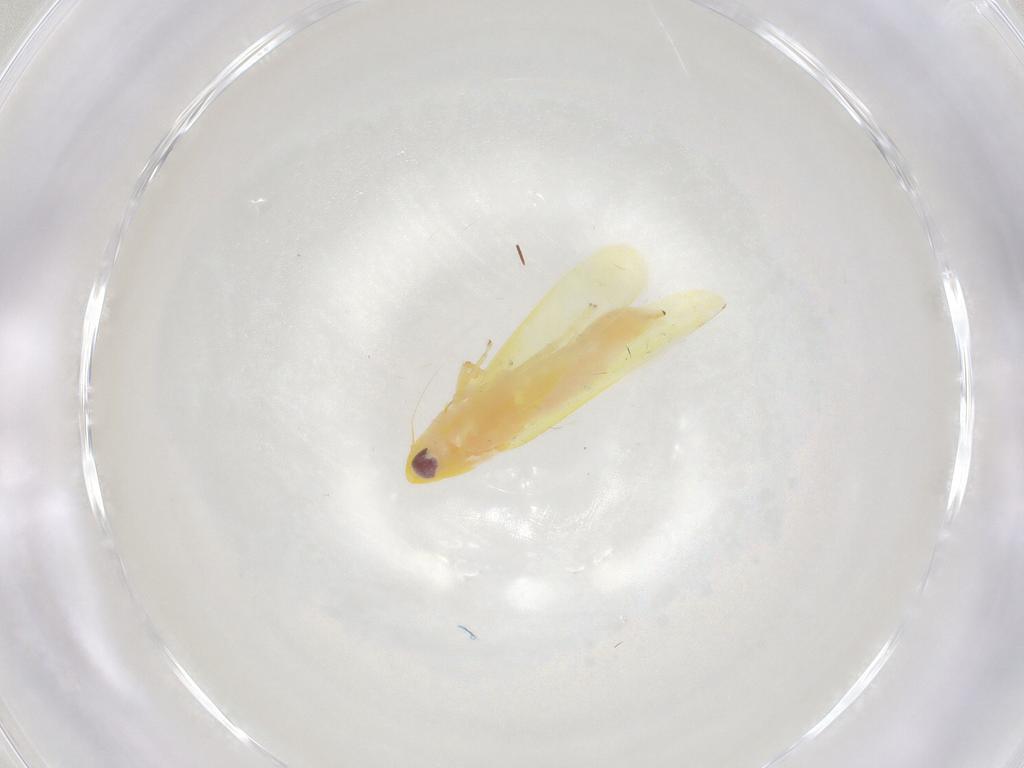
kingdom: Animalia
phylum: Arthropoda
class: Insecta
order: Hemiptera
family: Cicadellidae
